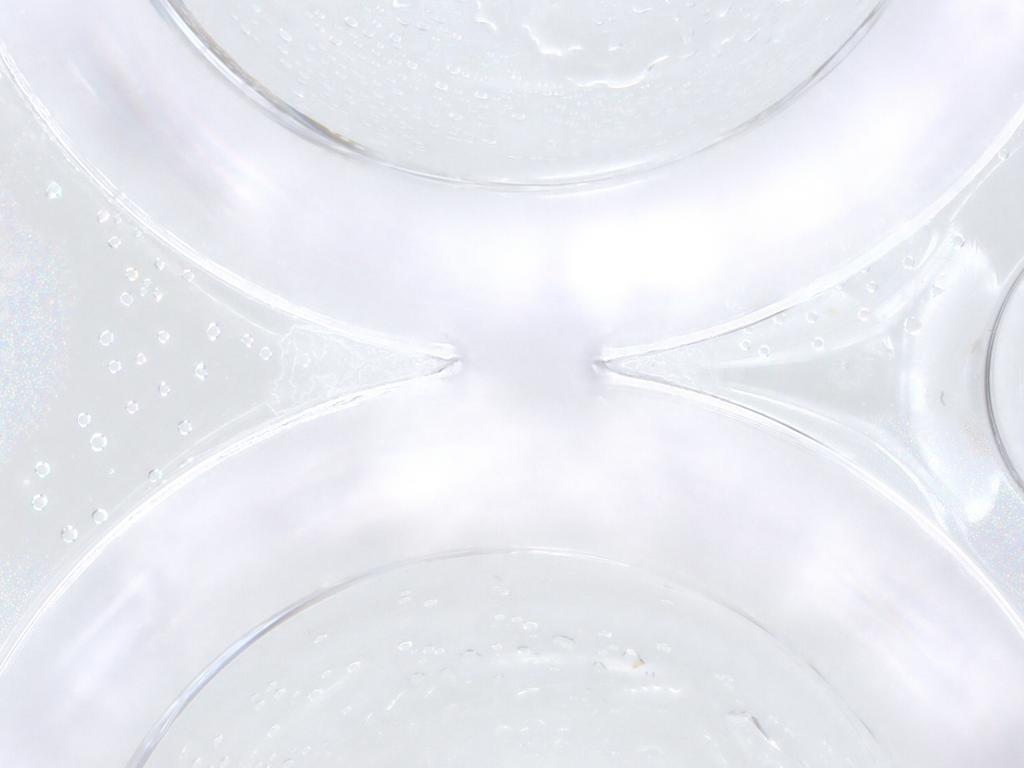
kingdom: Animalia
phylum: Arthropoda
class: Insecta
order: Diptera
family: Ceratopogonidae
